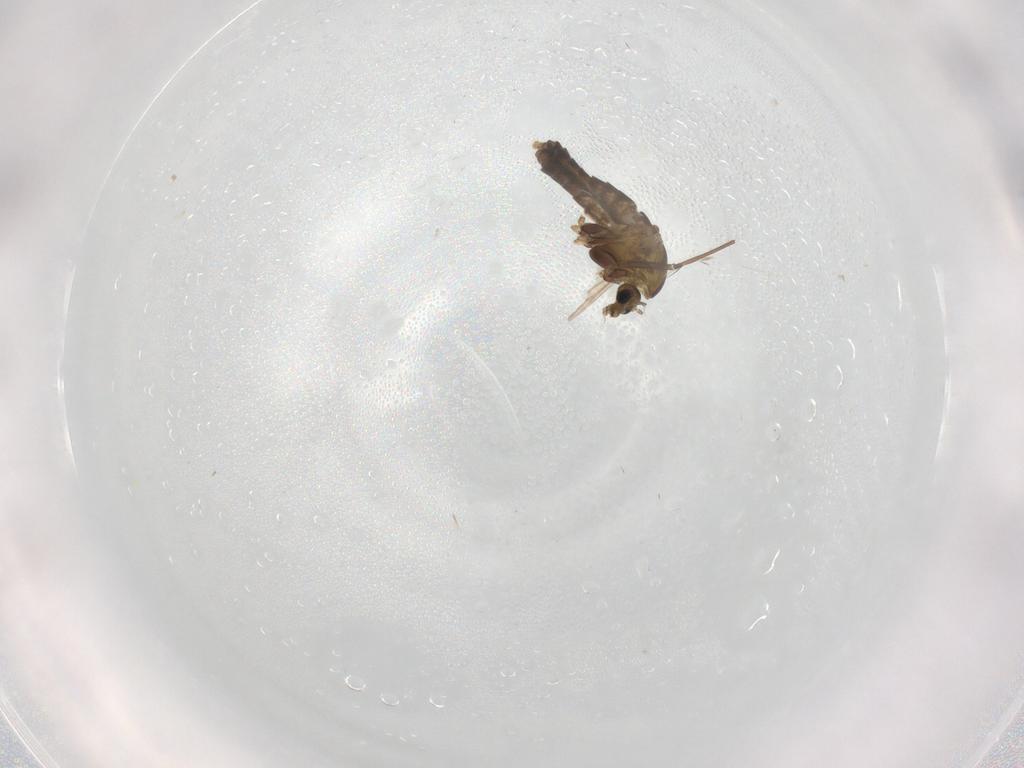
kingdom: Animalia
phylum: Arthropoda
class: Insecta
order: Diptera
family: Chironomidae
